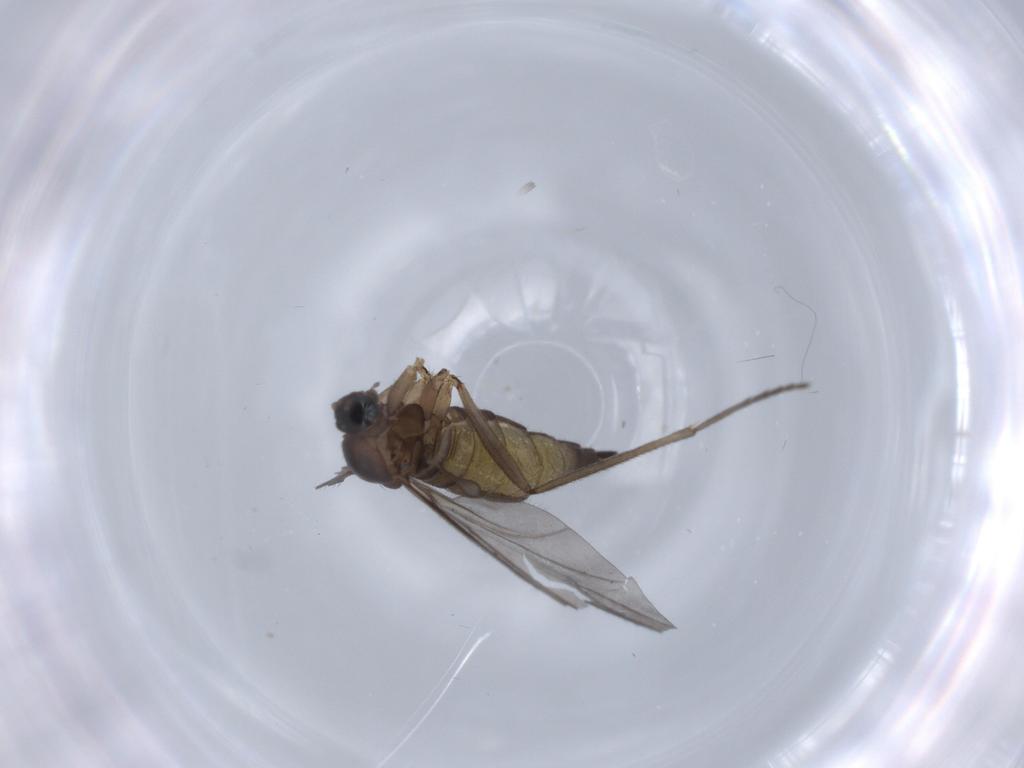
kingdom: Animalia
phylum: Arthropoda
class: Insecta
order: Diptera
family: Sciaridae
